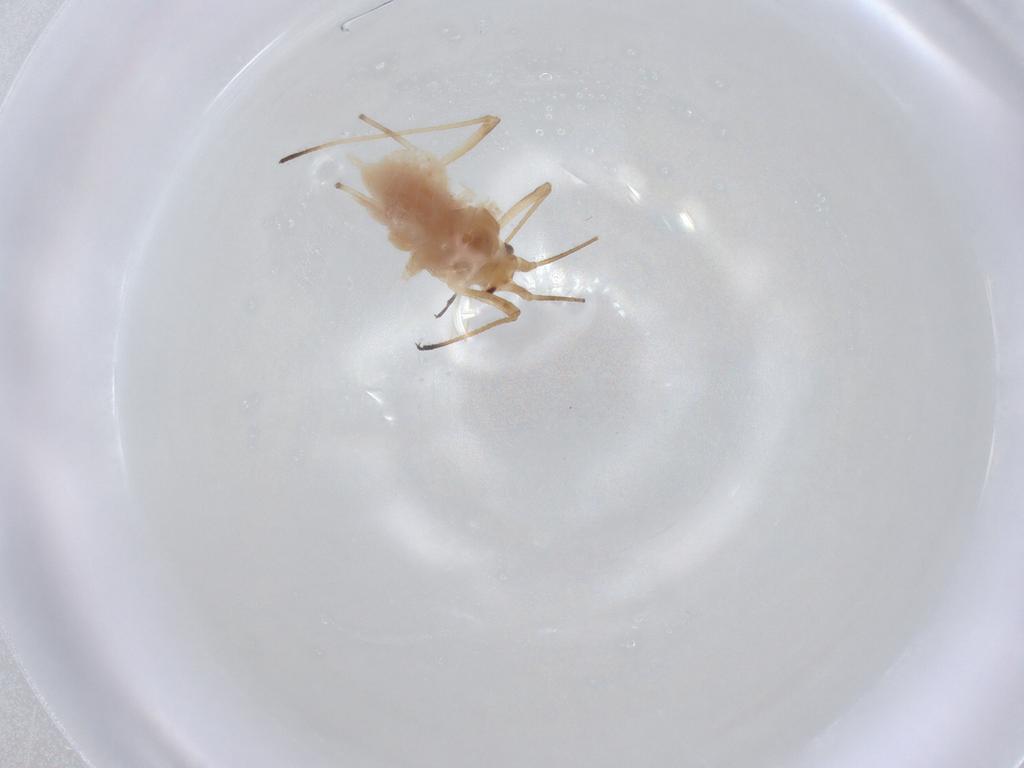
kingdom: Animalia
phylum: Arthropoda
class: Insecta
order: Hemiptera
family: Aphididae
